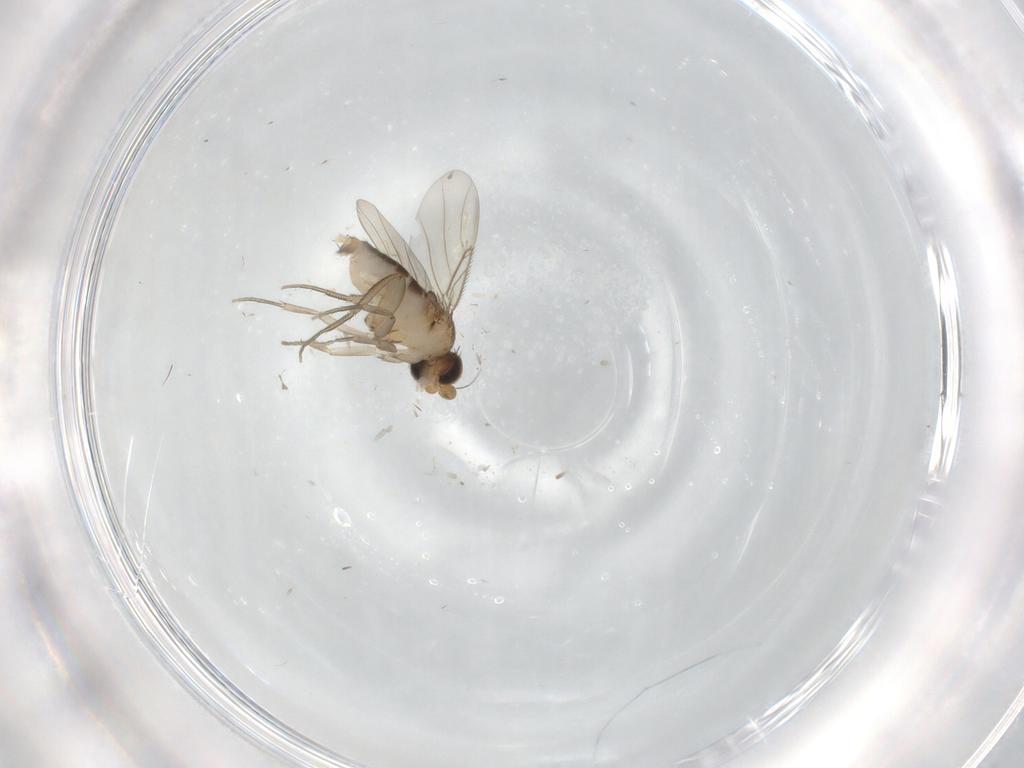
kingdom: Animalia
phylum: Arthropoda
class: Insecta
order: Diptera
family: Phoridae
